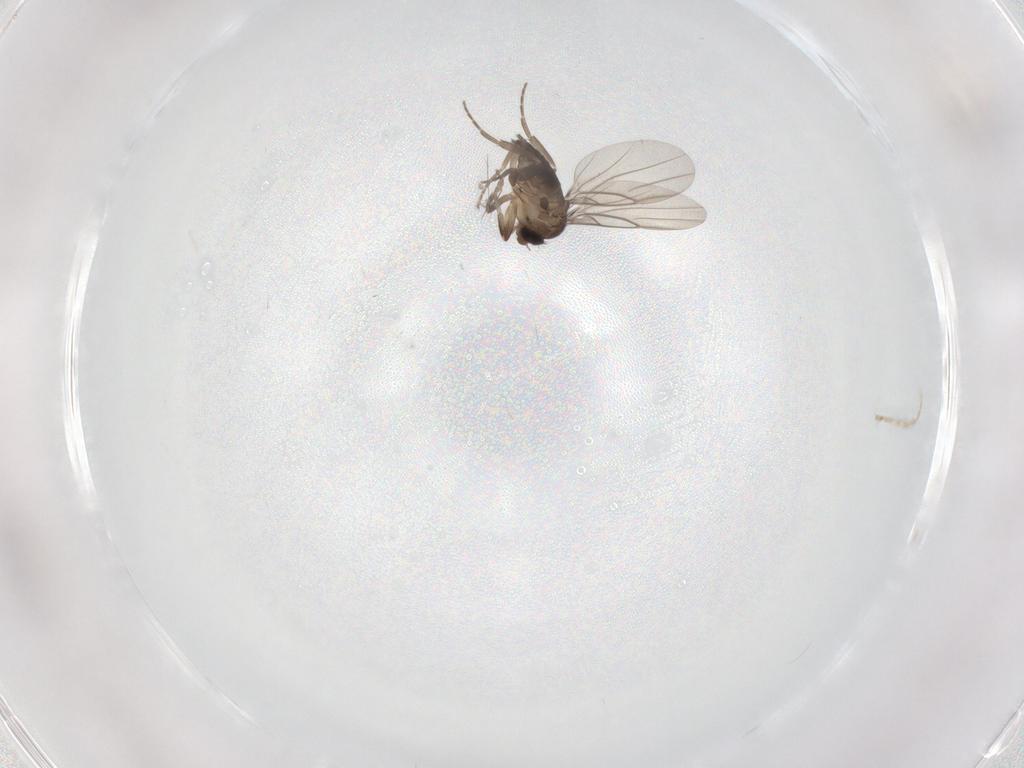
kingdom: Animalia
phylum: Arthropoda
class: Insecta
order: Diptera
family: Phoridae
